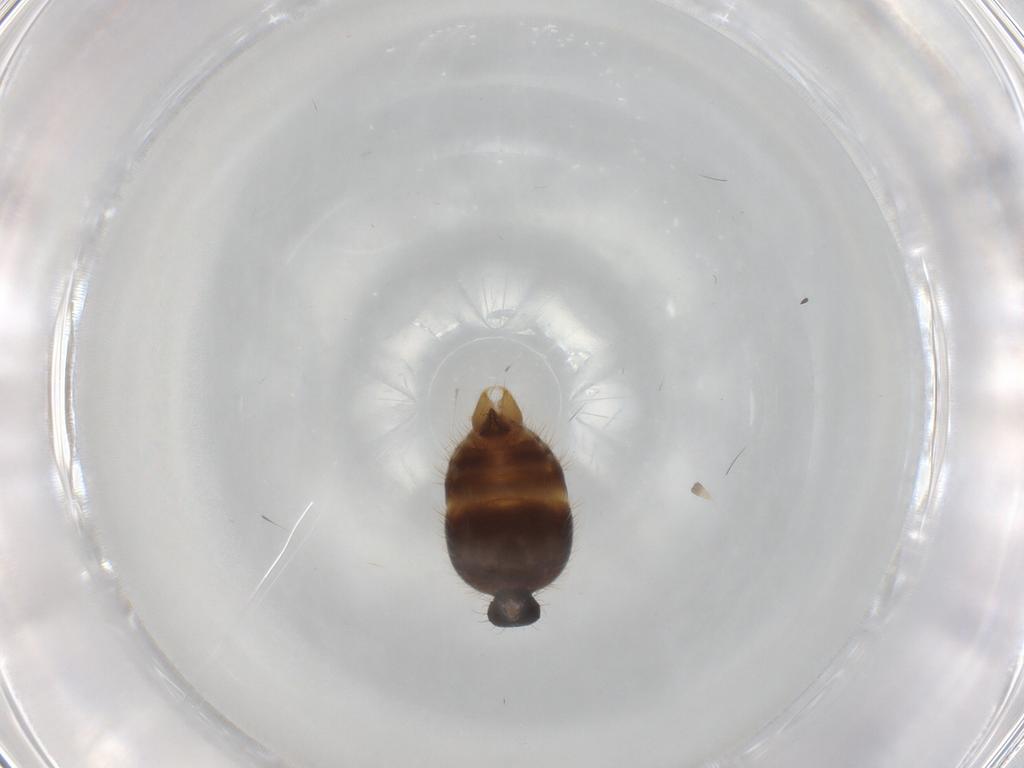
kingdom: Animalia
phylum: Arthropoda
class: Insecta
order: Hymenoptera
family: Formicidae
